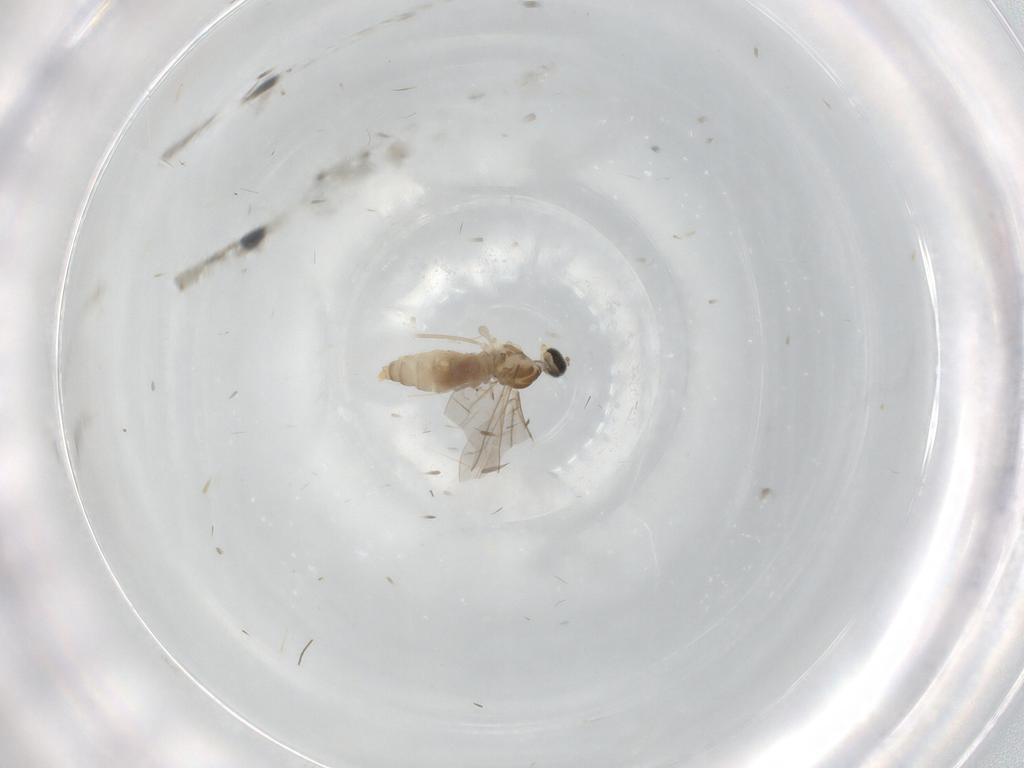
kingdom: Animalia
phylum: Arthropoda
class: Insecta
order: Diptera
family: Cecidomyiidae
